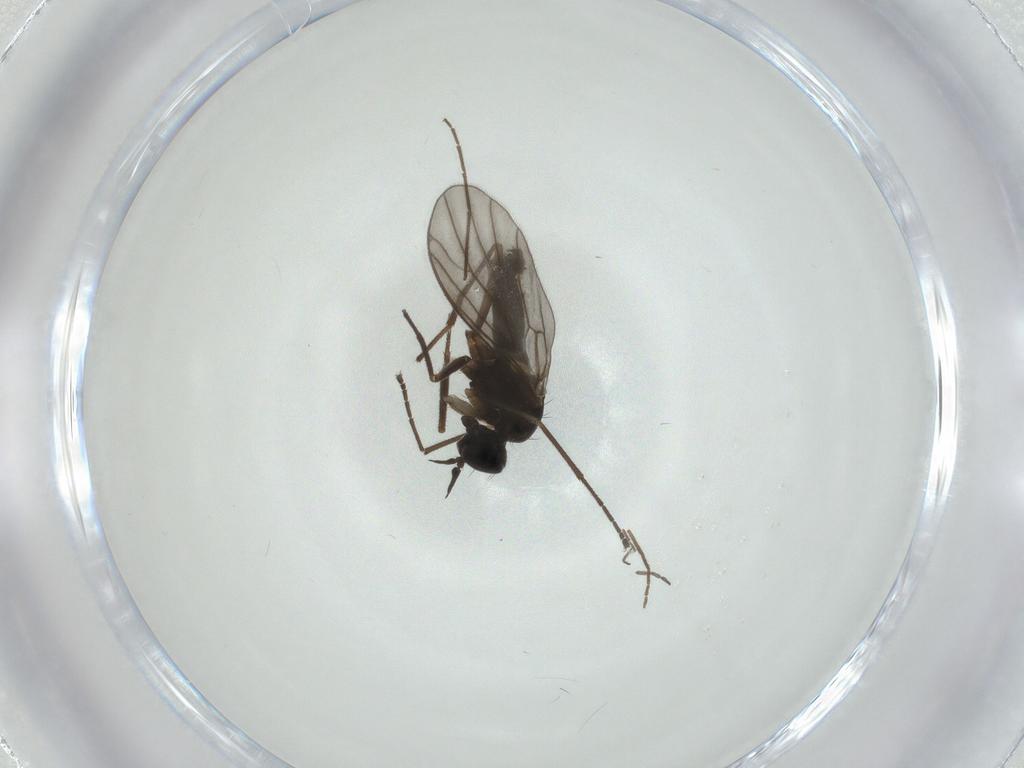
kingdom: Animalia
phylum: Arthropoda
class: Insecta
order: Diptera
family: Empididae
